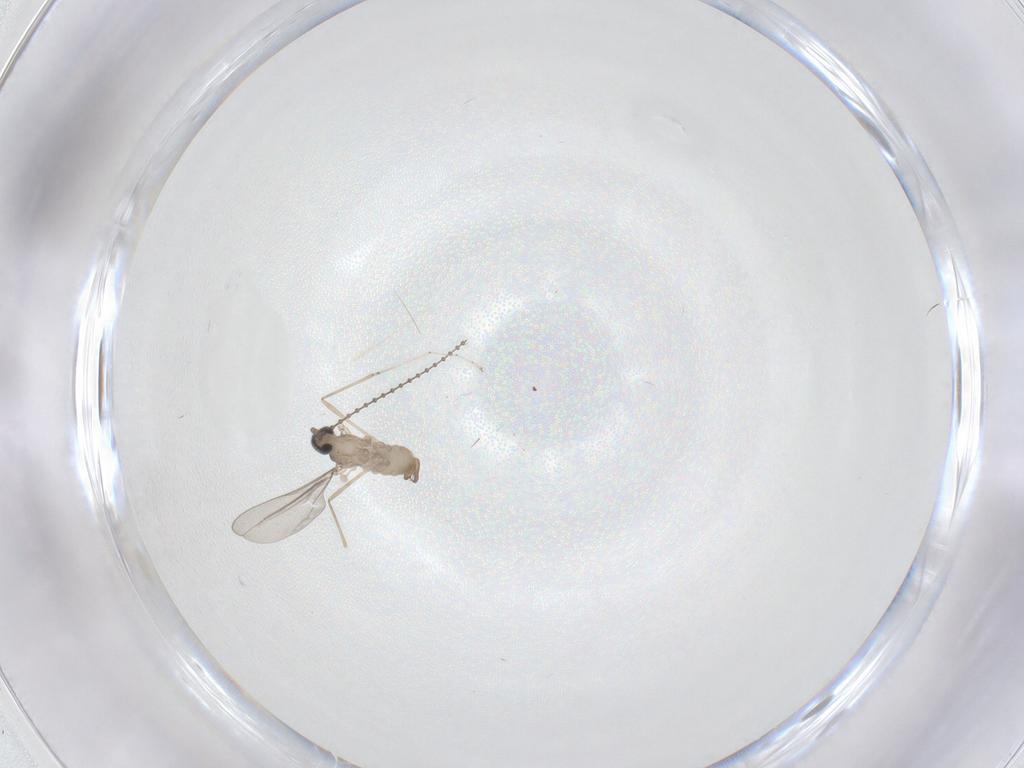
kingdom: Animalia
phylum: Arthropoda
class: Insecta
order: Diptera
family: Cecidomyiidae
